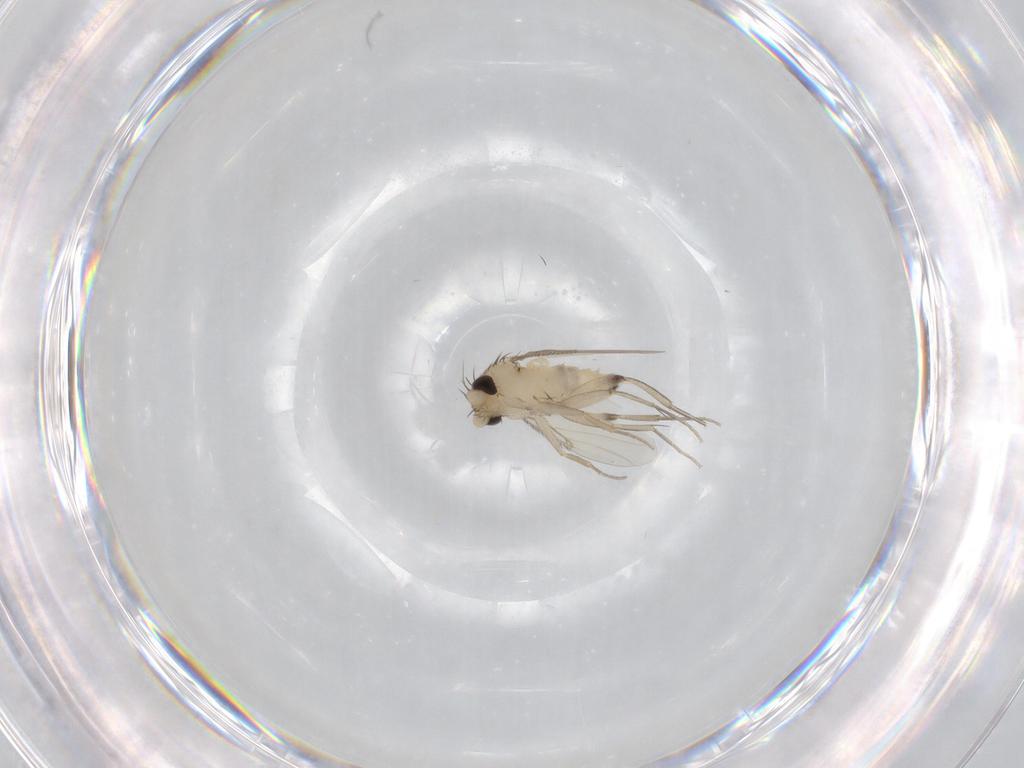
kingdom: Animalia
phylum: Arthropoda
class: Insecta
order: Diptera
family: Phoridae
